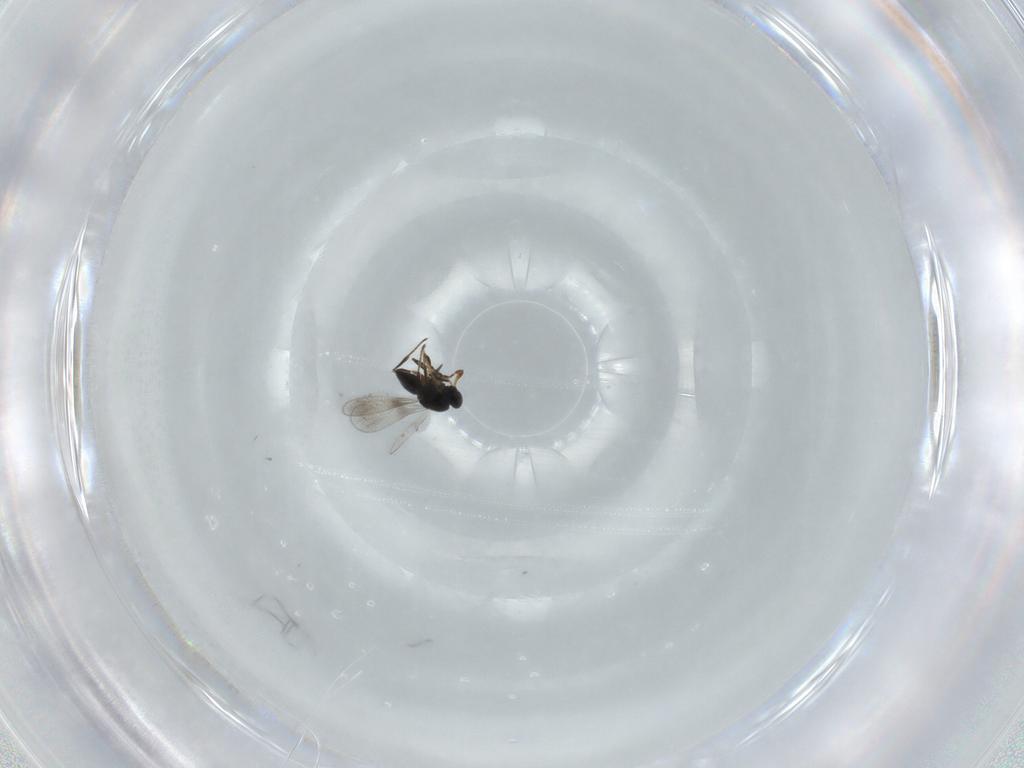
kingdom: Animalia
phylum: Arthropoda
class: Insecta
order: Hymenoptera
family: Platygastridae
